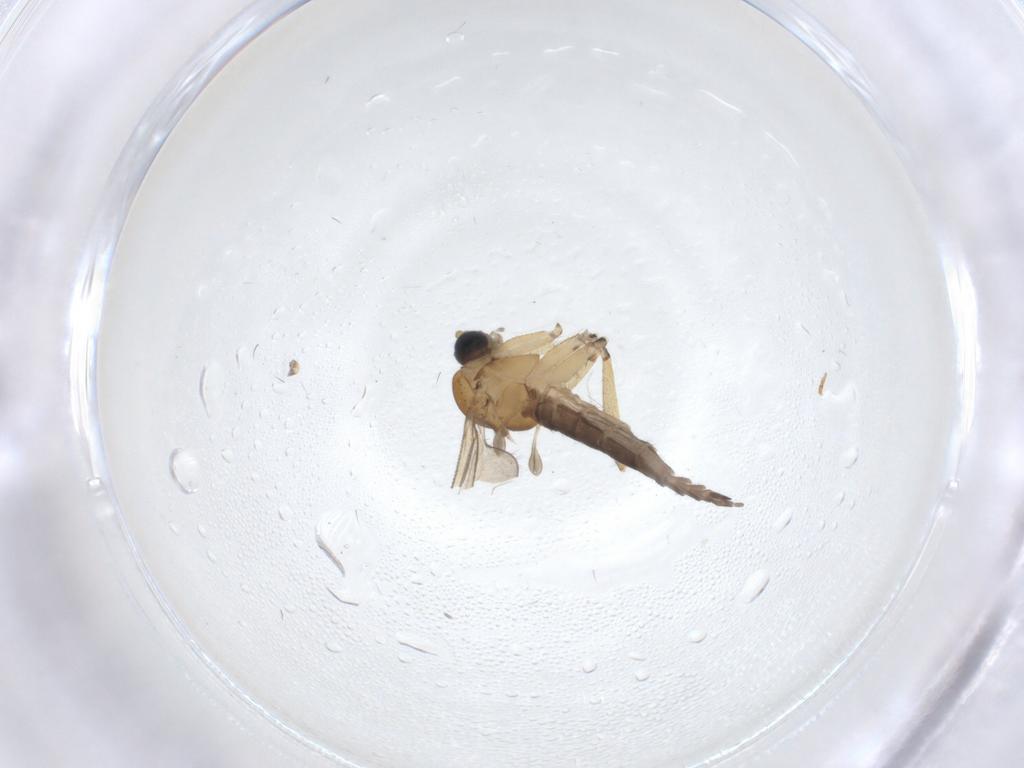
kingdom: Animalia
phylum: Arthropoda
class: Insecta
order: Diptera
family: Sciaridae
